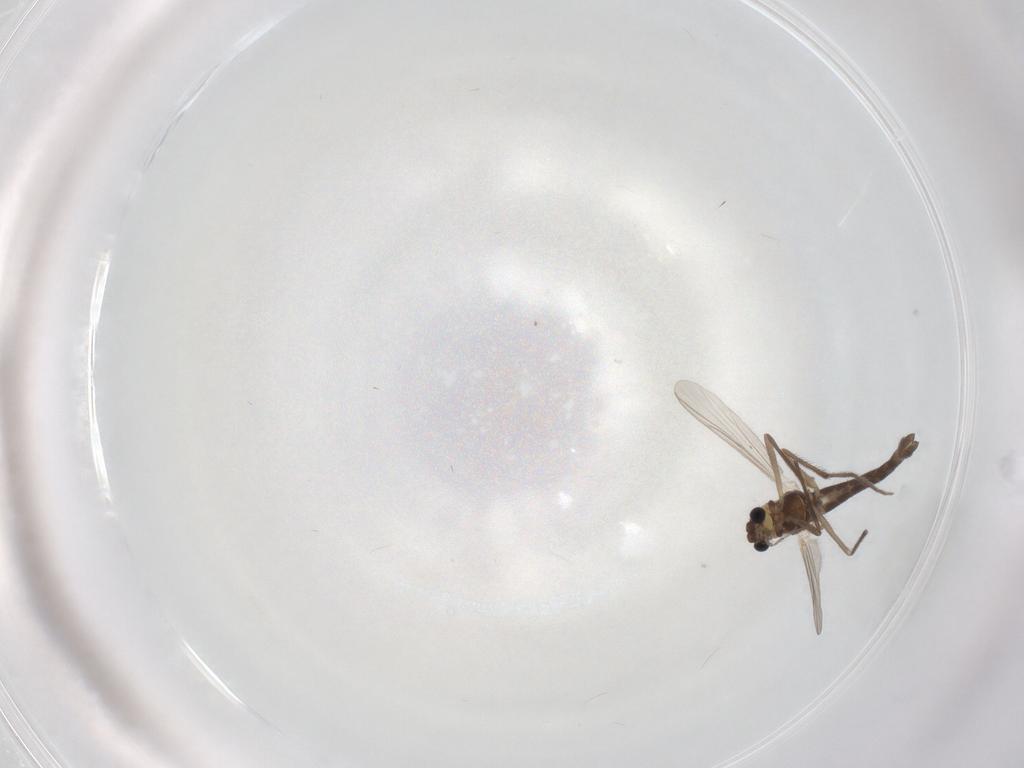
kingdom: Animalia
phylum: Arthropoda
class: Insecta
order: Diptera
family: Chironomidae
